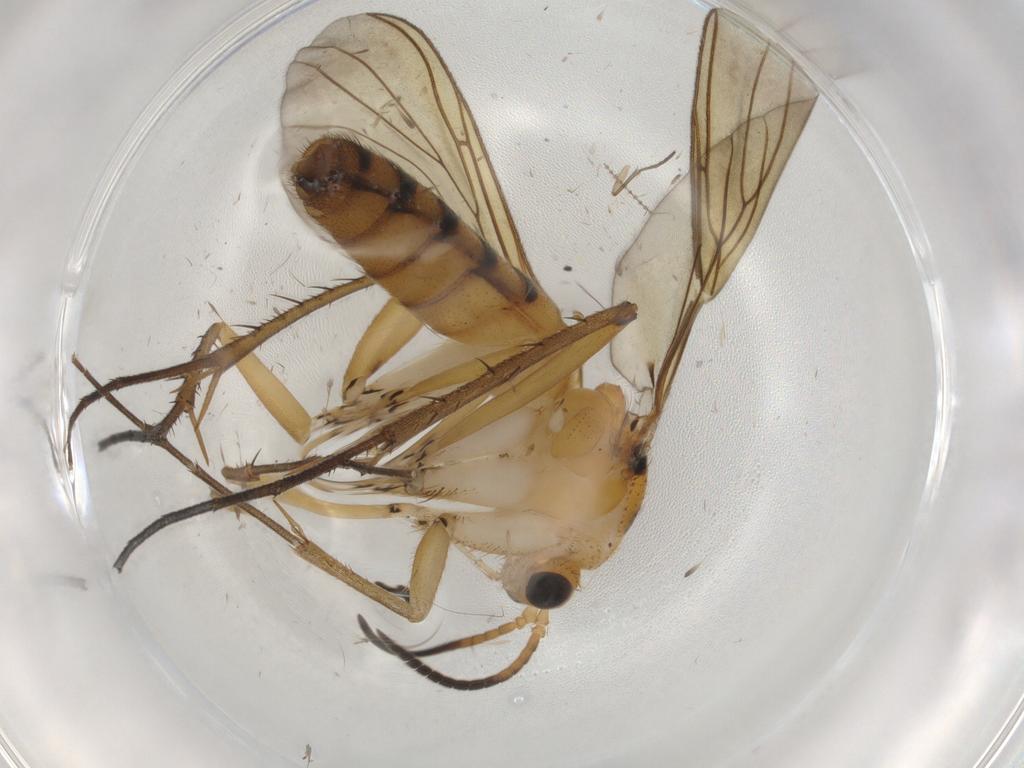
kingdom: Animalia
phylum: Arthropoda
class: Insecta
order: Diptera
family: Mycetophilidae
